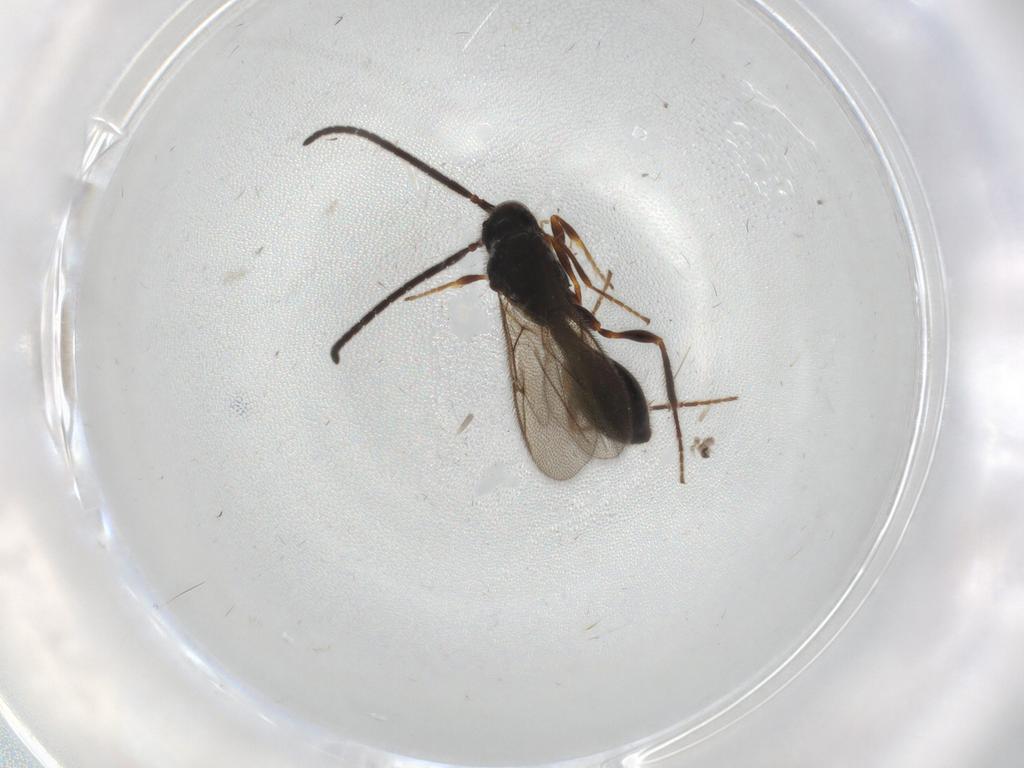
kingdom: Animalia
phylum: Arthropoda
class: Insecta
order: Hymenoptera
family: Diapriidae
